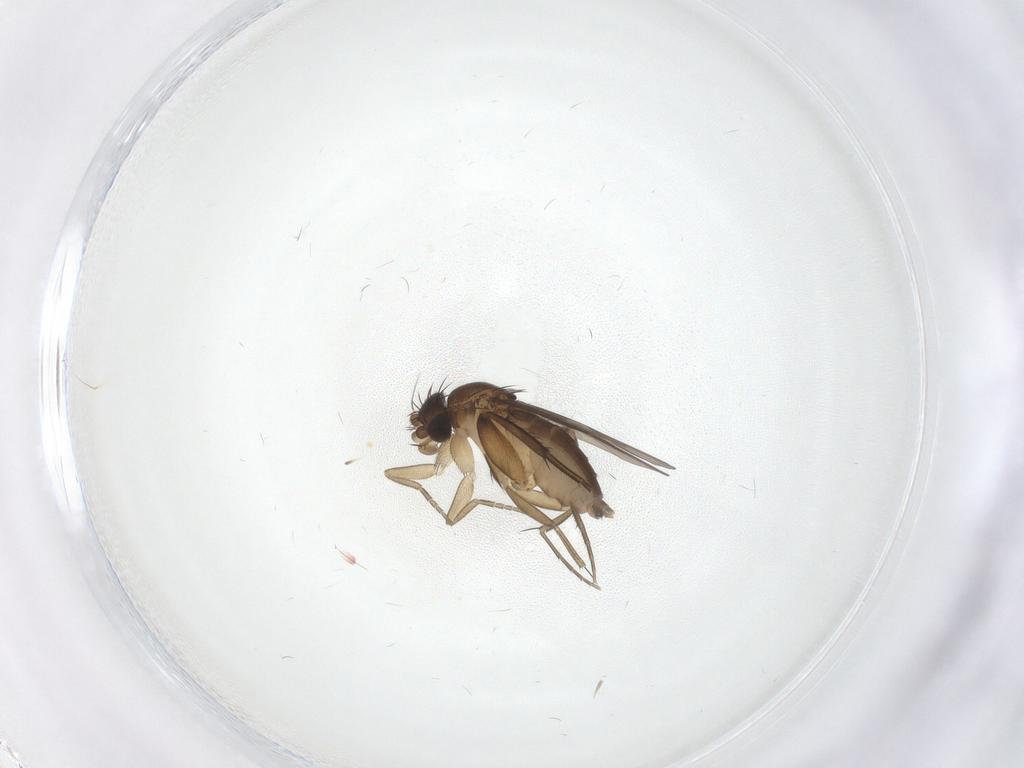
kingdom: Animalia
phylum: Arthropoda
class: Insecta
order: Diptera
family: Phoridae
